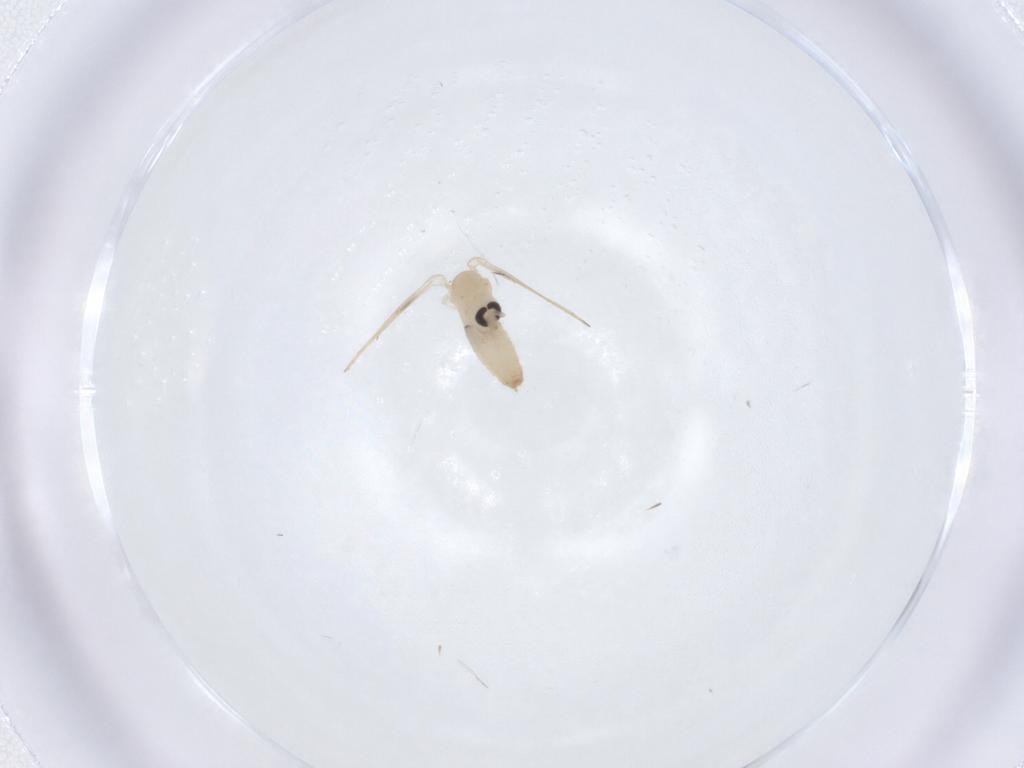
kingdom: Animalia
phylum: Arthropoda
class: Insecta
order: Diptera
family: Psychodidae
